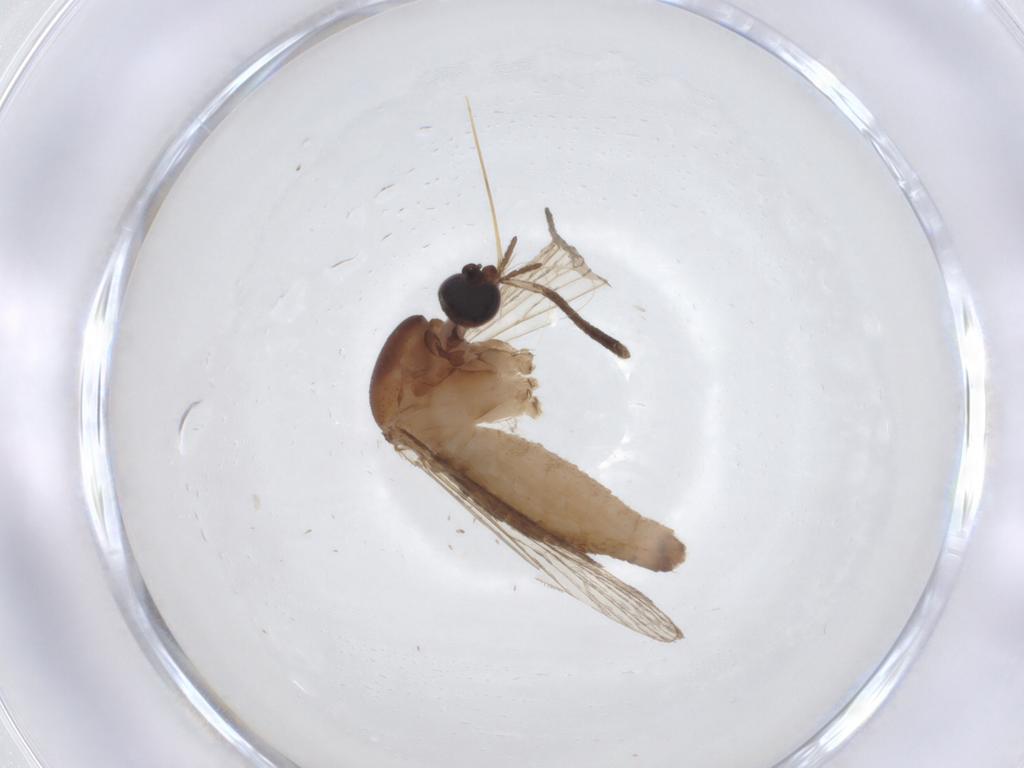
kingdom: Animalia
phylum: Arthropoda
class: Insecta
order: Diptera
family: Culicidae
